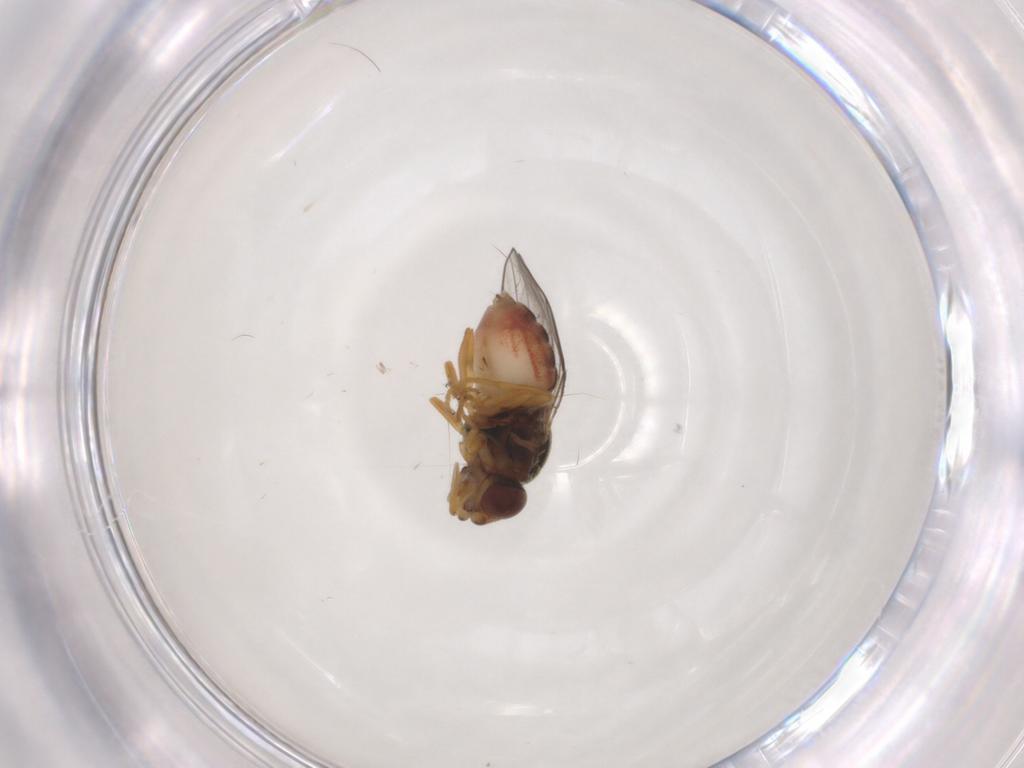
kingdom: Animalia
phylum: Arthropoda
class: Insecta
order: Diptera
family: Chloropidae
